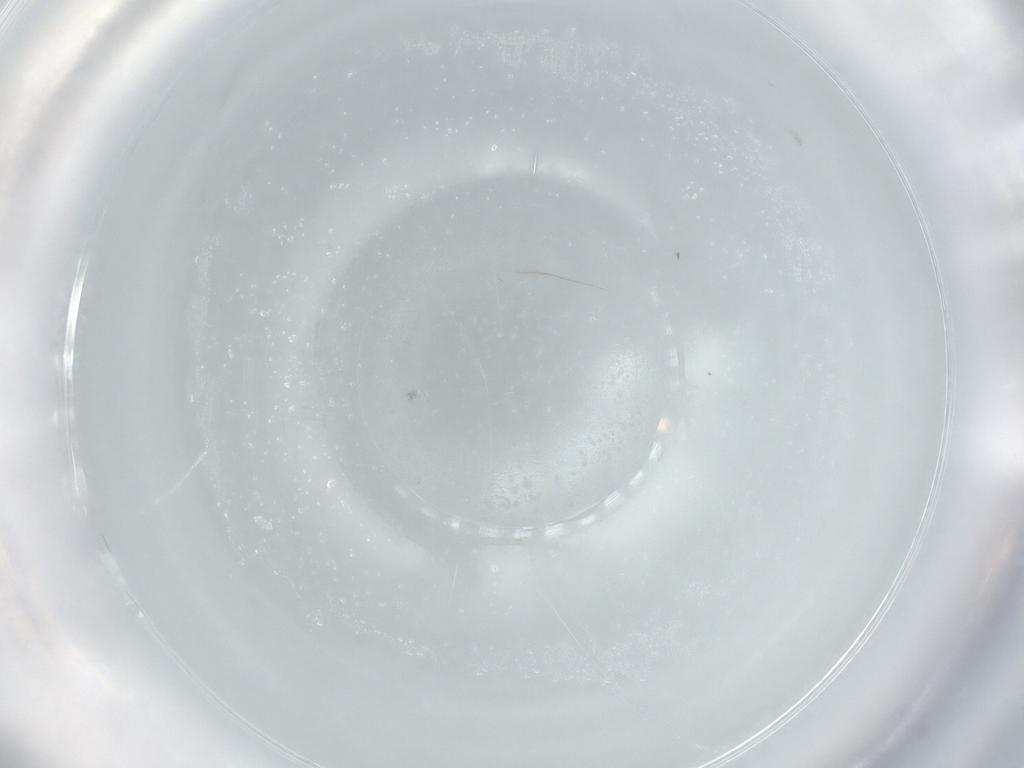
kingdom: Animalia
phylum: Arthropoda
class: Insecta
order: Diptera
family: Phoridae
